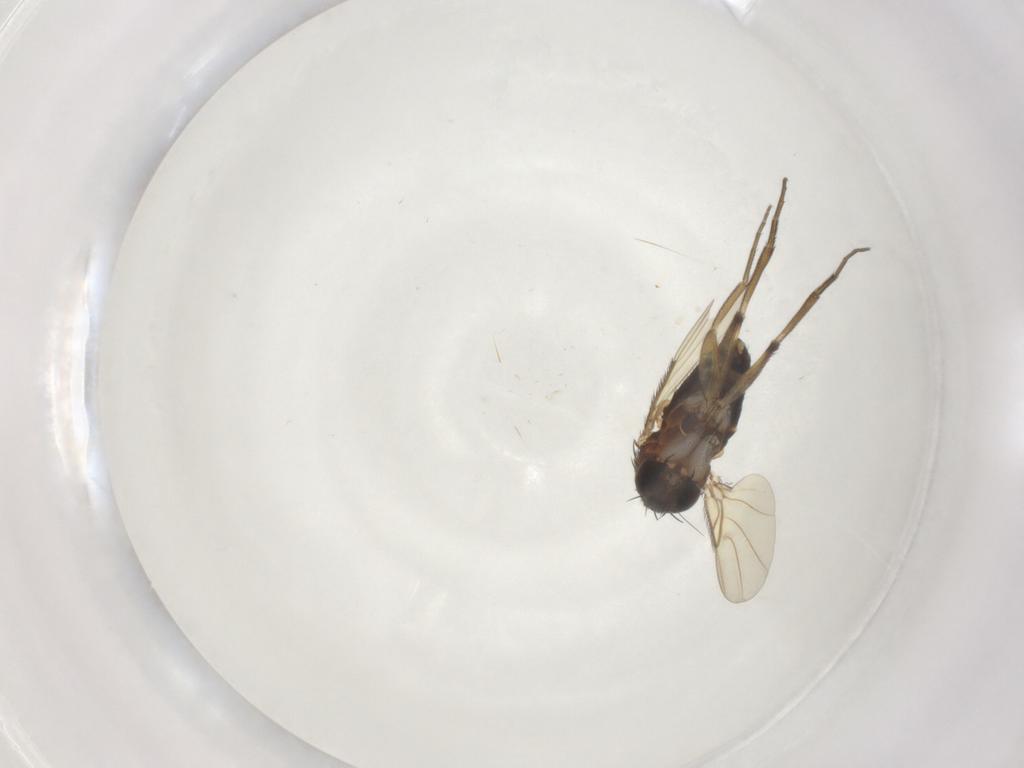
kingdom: Animalia
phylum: Arthropoda
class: Insecta
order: Diptera
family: Phoridae
